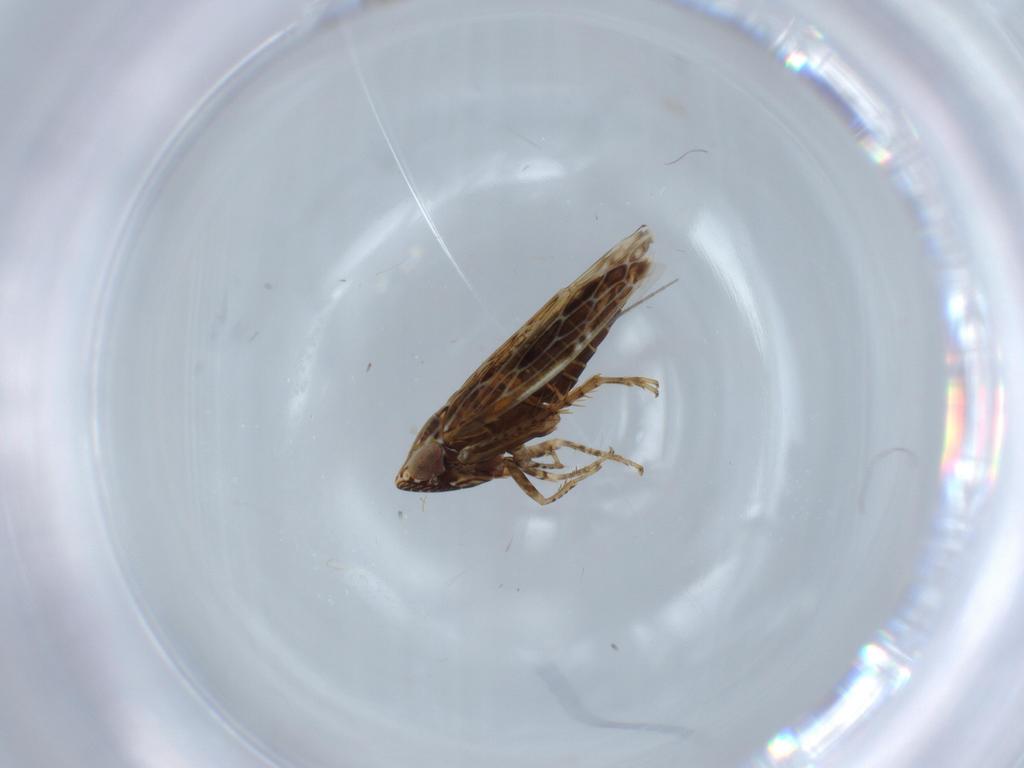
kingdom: Animalia
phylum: Arthropoda
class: Insecta
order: Hemiptera
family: Cicadellidae
